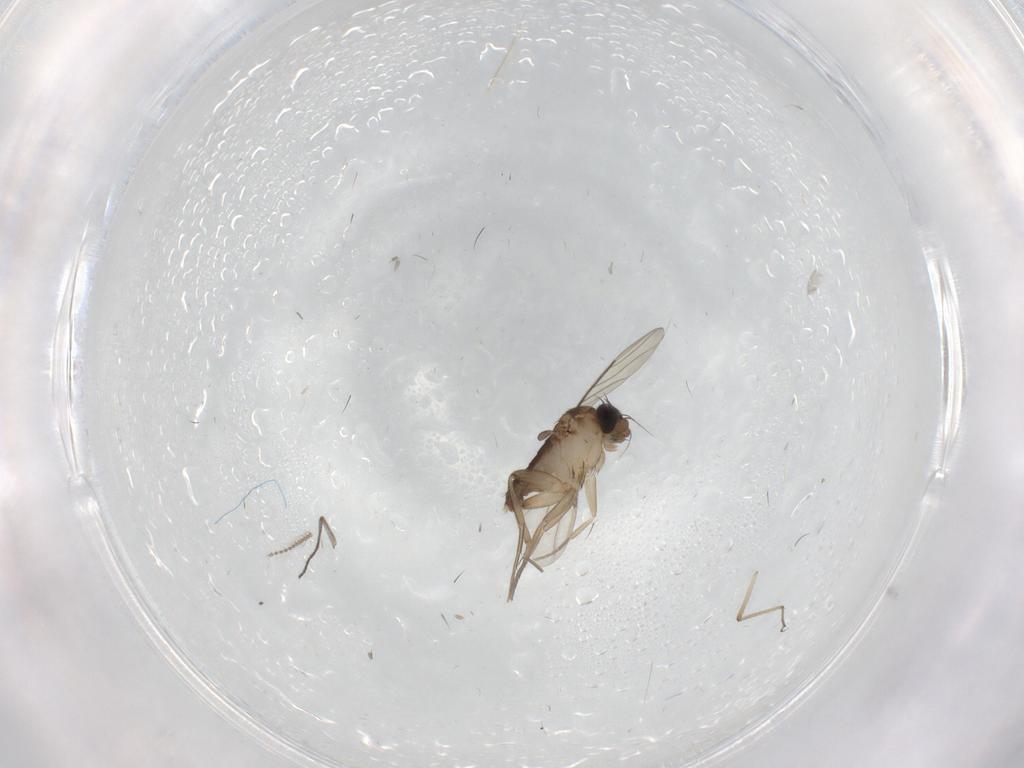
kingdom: Animalia
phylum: Arthropoda
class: Insecta
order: Diptera
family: Phoridae
